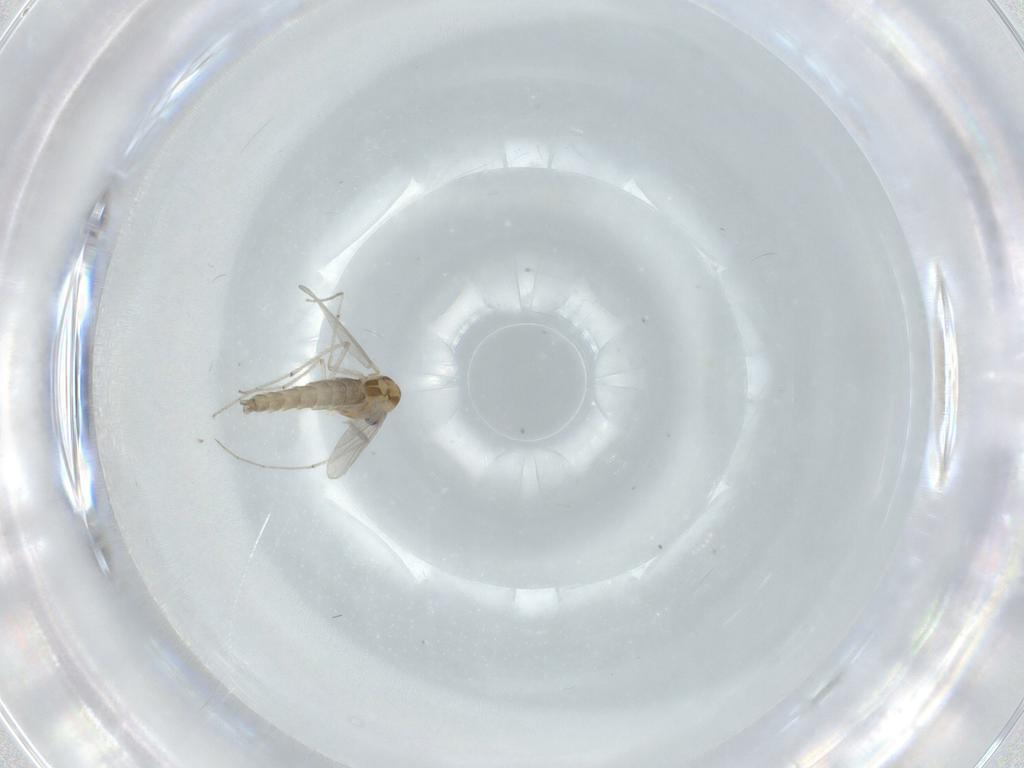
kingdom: Animalia
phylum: Arthropoda
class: Insecta
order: Diptera
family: Chironomidae
